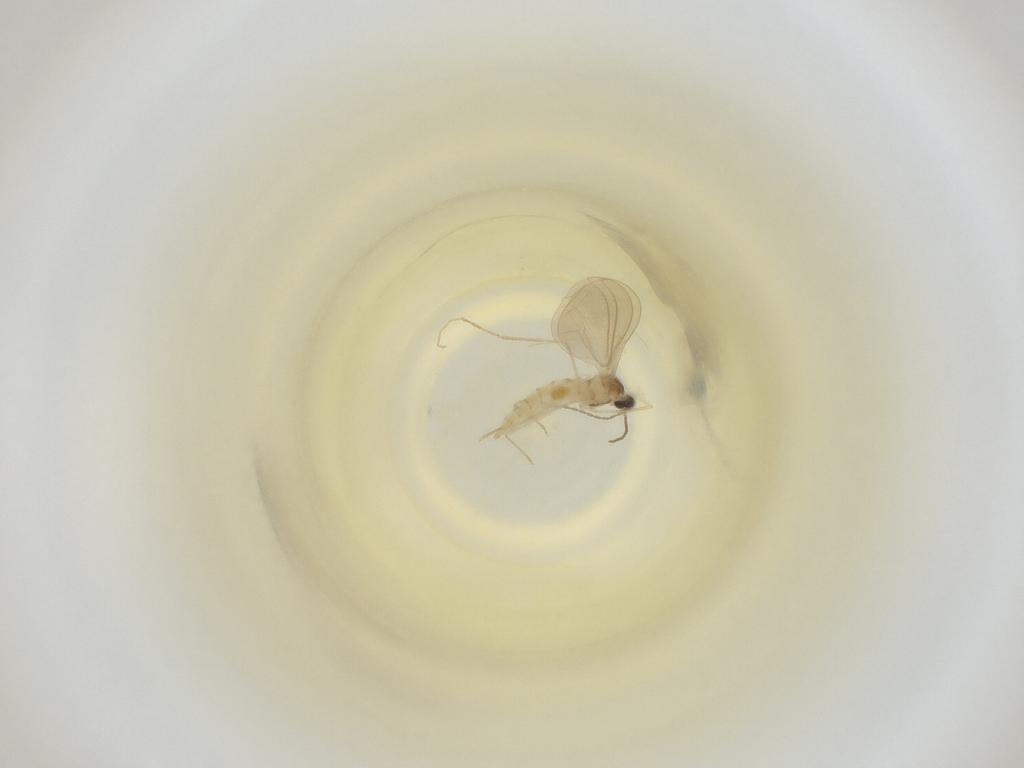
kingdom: Animalia
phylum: Arthropoda
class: Insecta
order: Diptera
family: Cecidomyiidae
